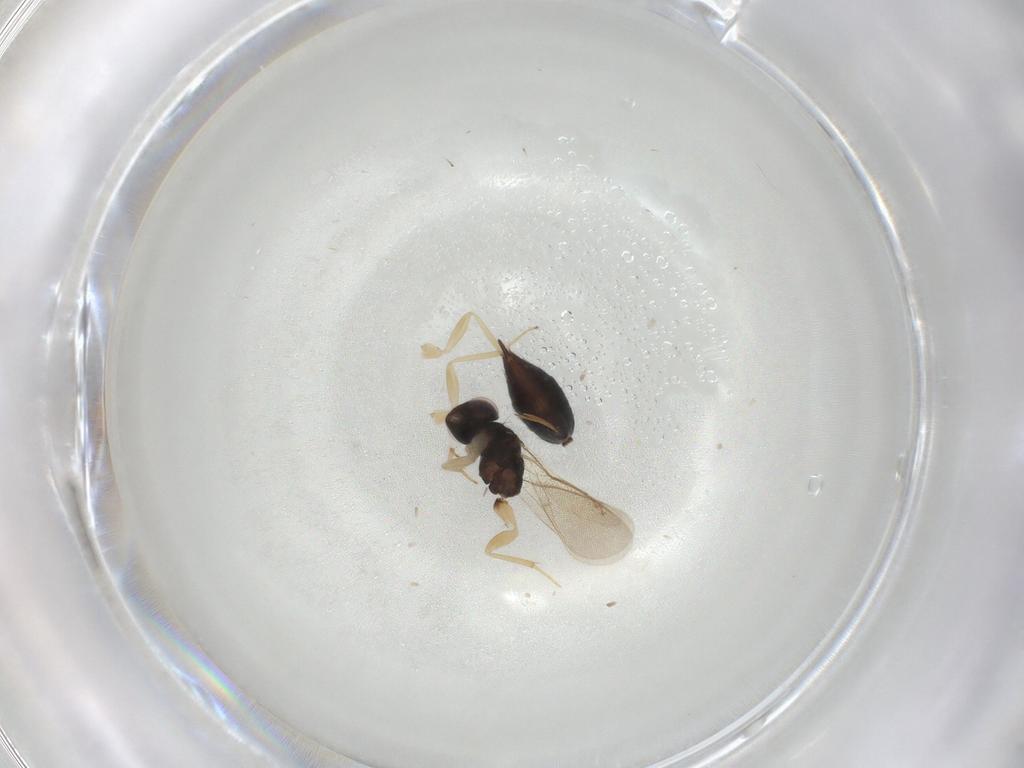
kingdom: Animalia
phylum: Arthropoda
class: Insecta
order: Hymenoptera
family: Eulophidae
